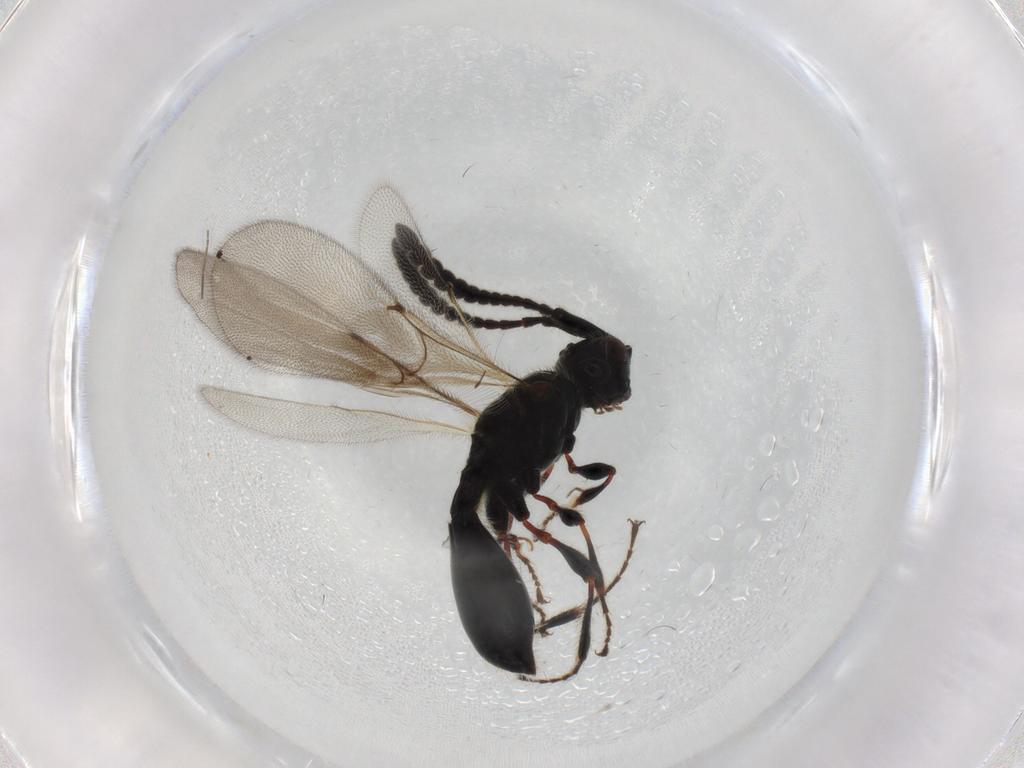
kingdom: Animalia
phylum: Arthropoda
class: Insecta
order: Hymenoptera
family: Diapriidae
